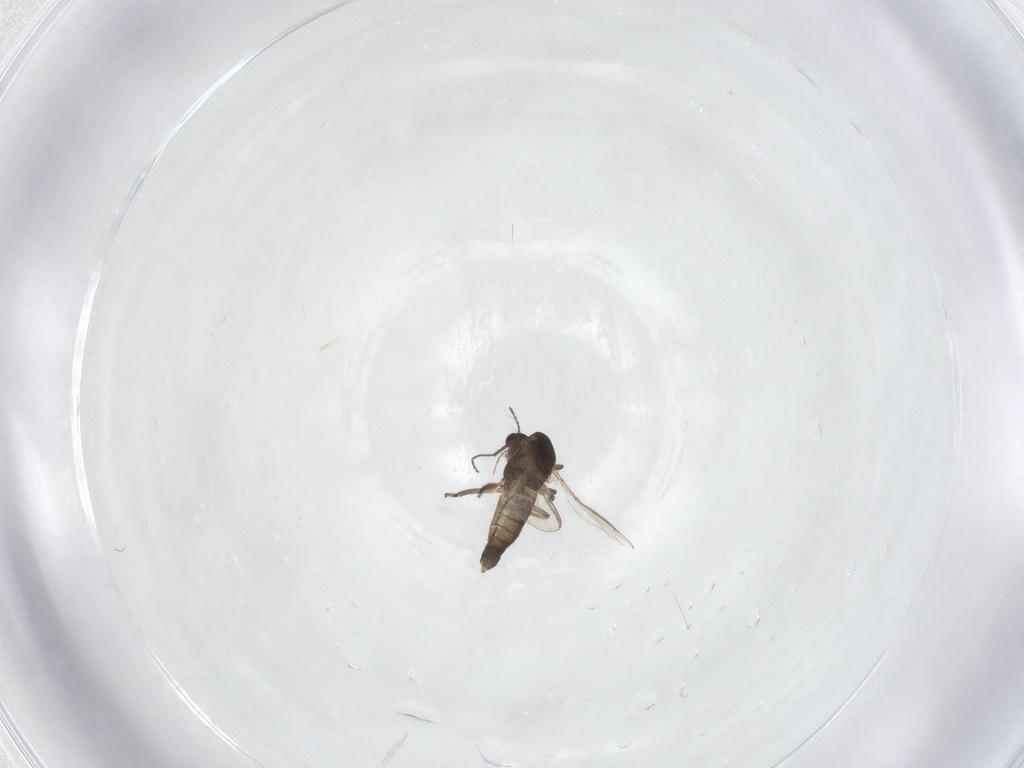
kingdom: Animalia
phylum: Arthropoda
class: Insecta
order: Diptera
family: Chironomidae
